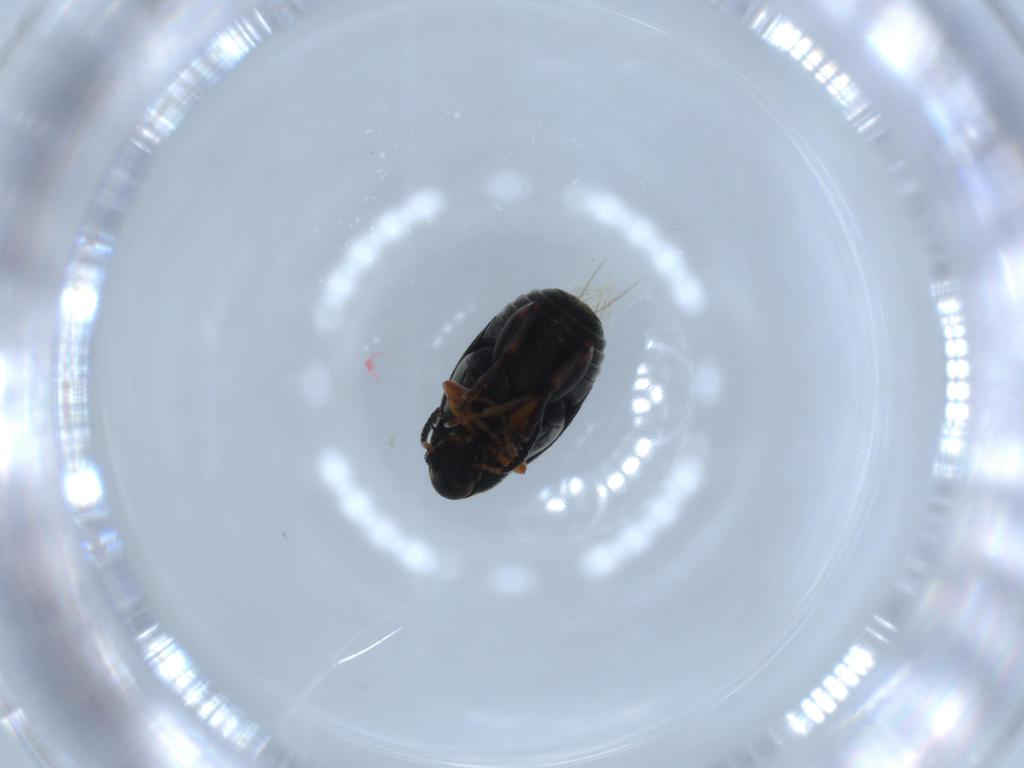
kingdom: Animalia
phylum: Arthropoda
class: Insecta
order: Coleoptera
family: Chrysomelidae
